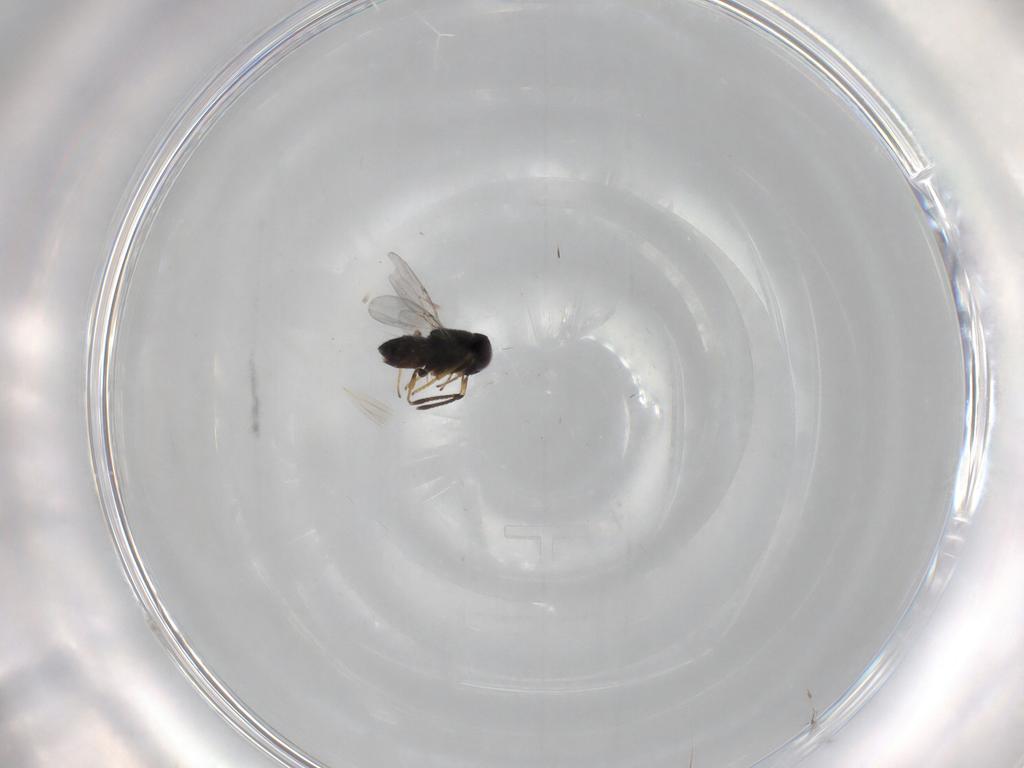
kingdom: Animalia
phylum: Arthropoda
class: Insecta
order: Hymenoptera
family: Encyrtidae
